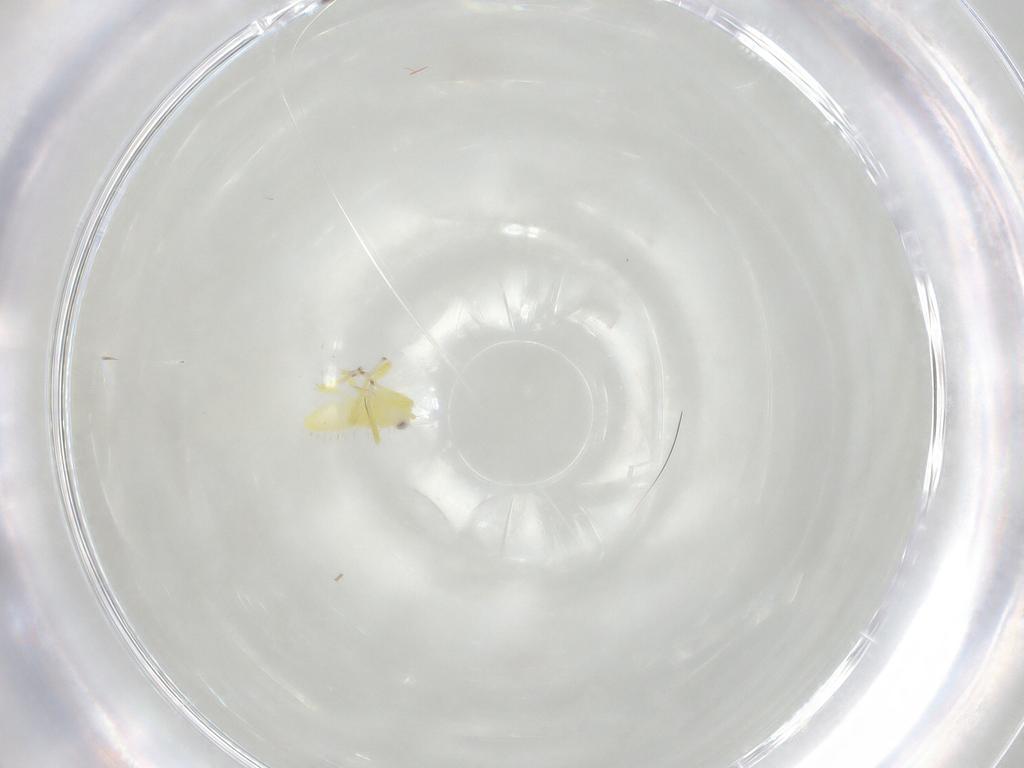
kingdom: Animalia
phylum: Arthropoda
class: Insecta
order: Hemiptera
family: Cicadellidae
